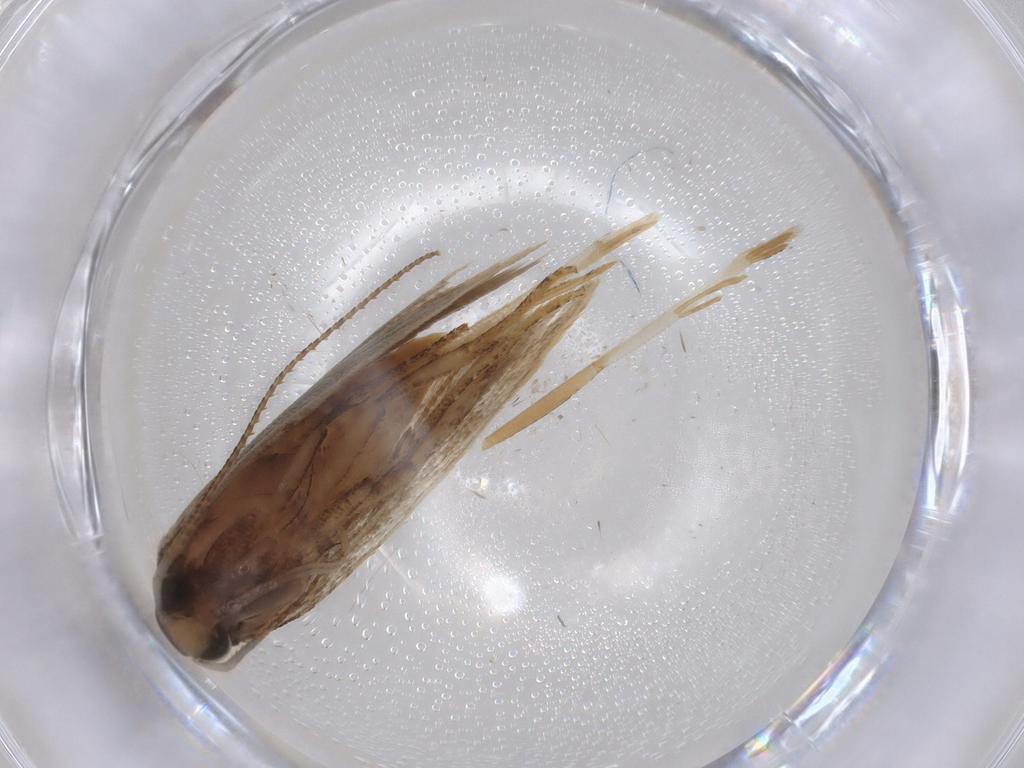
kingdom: Animalia
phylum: Arthropoda
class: Insecta
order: Lepidoptera
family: Gelechiidae
